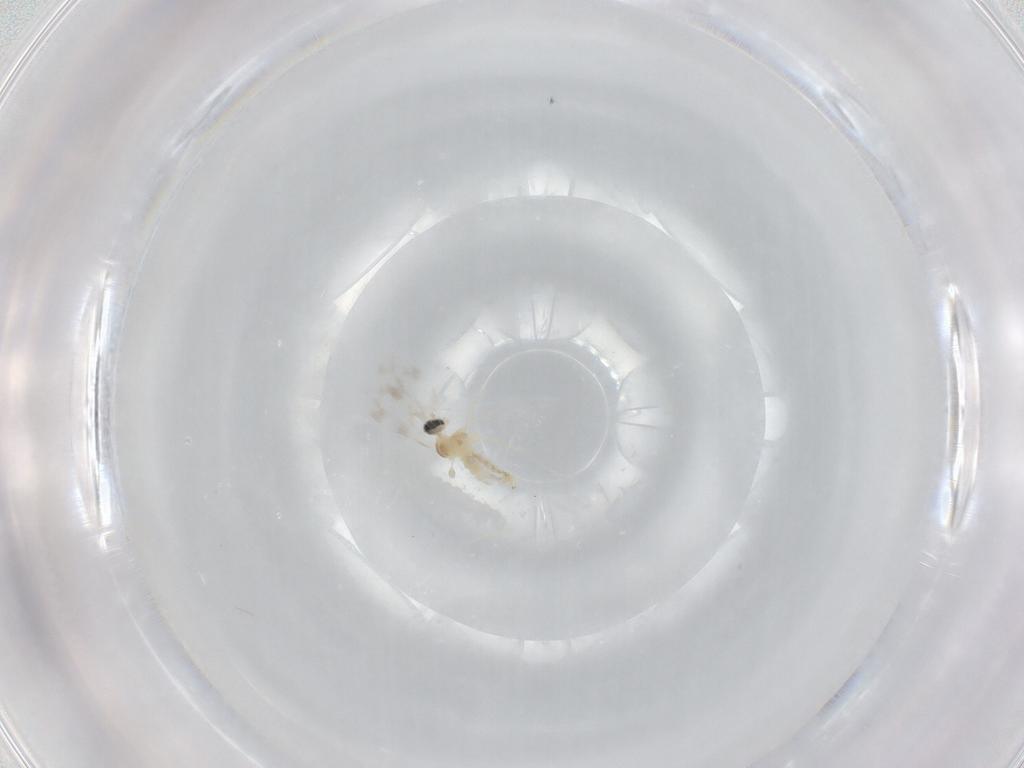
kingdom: Animalia
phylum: Arthropoda
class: Insecta
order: Diptera
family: Cecidomyiidae
